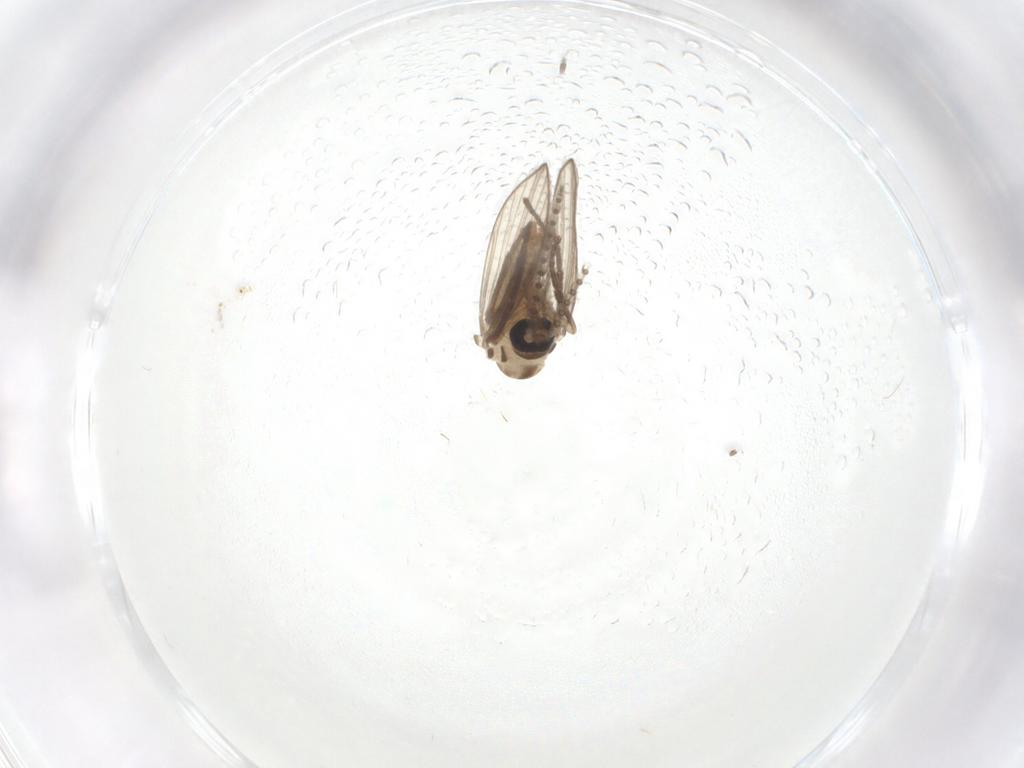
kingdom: Animalia
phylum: Arthropoda
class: Insecta
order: Diptera
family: Psychodidae
